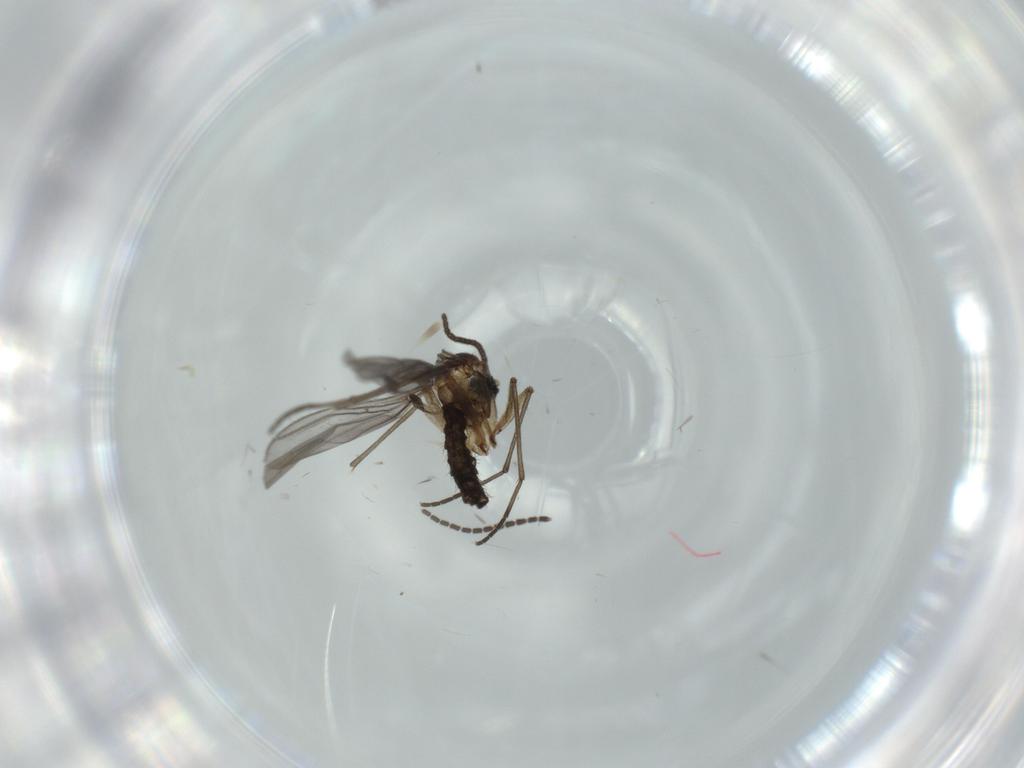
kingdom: Animalia
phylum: Arthropoda
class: Insecta
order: Diptera
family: Sciaridae
